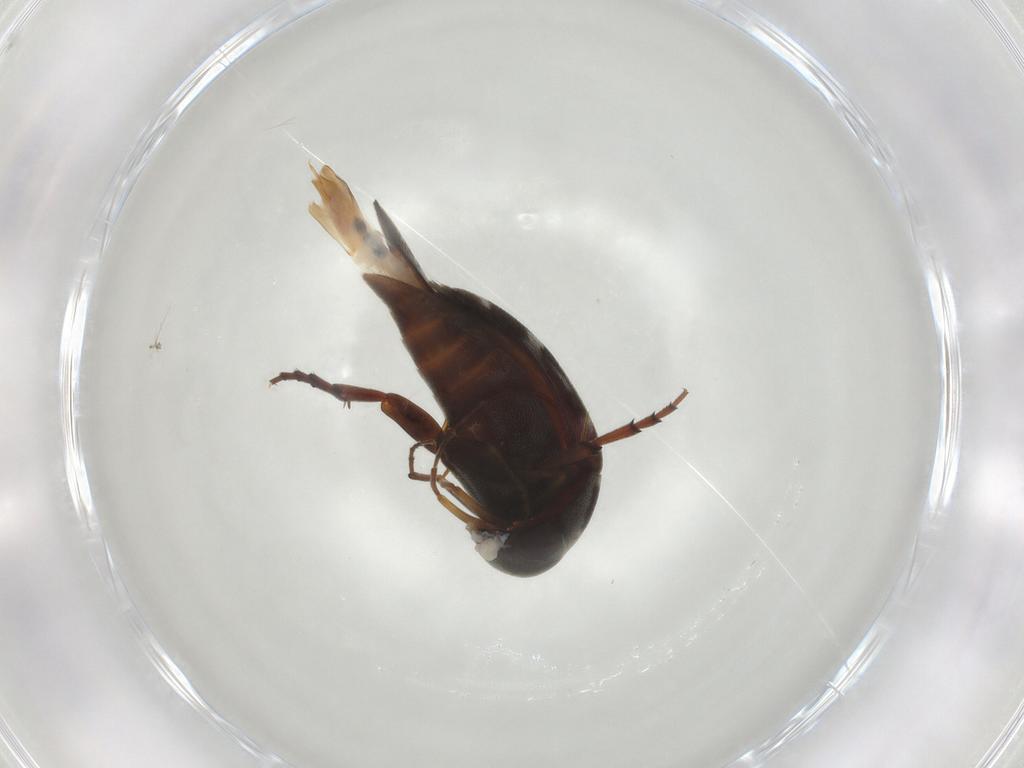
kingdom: Animalia
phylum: Arthropoda
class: Insecta
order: Coleoptera
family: Coccinellidae
